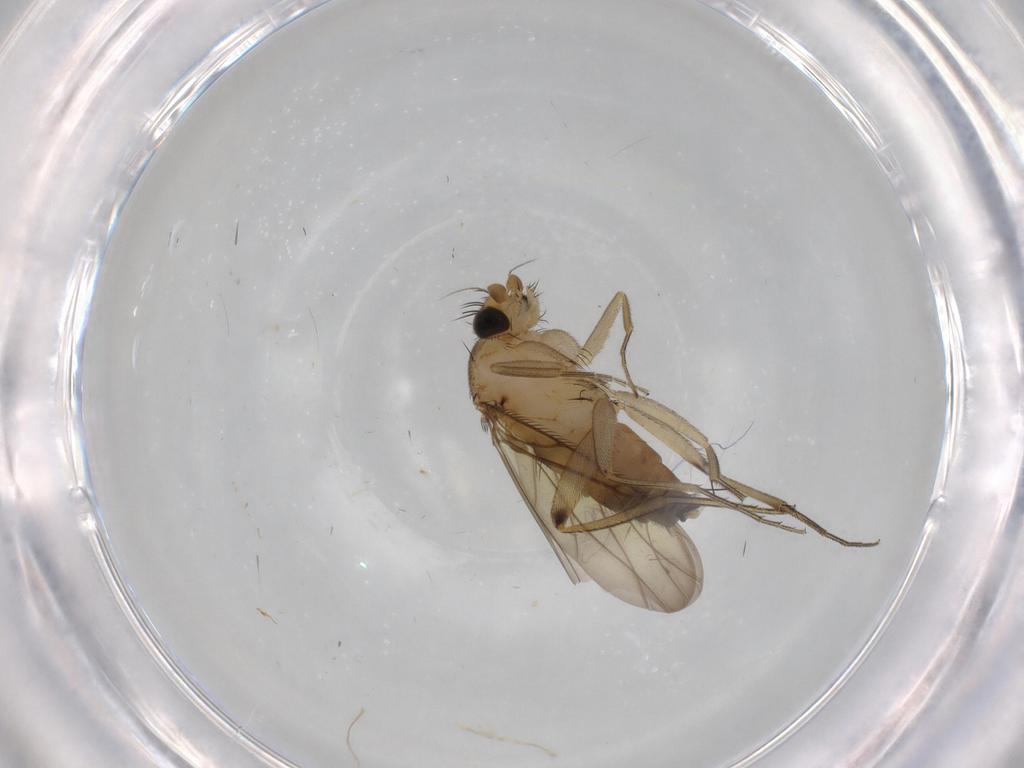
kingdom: Animalia
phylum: Arthropoda
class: Insecta
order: Diptera
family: Phoridae
